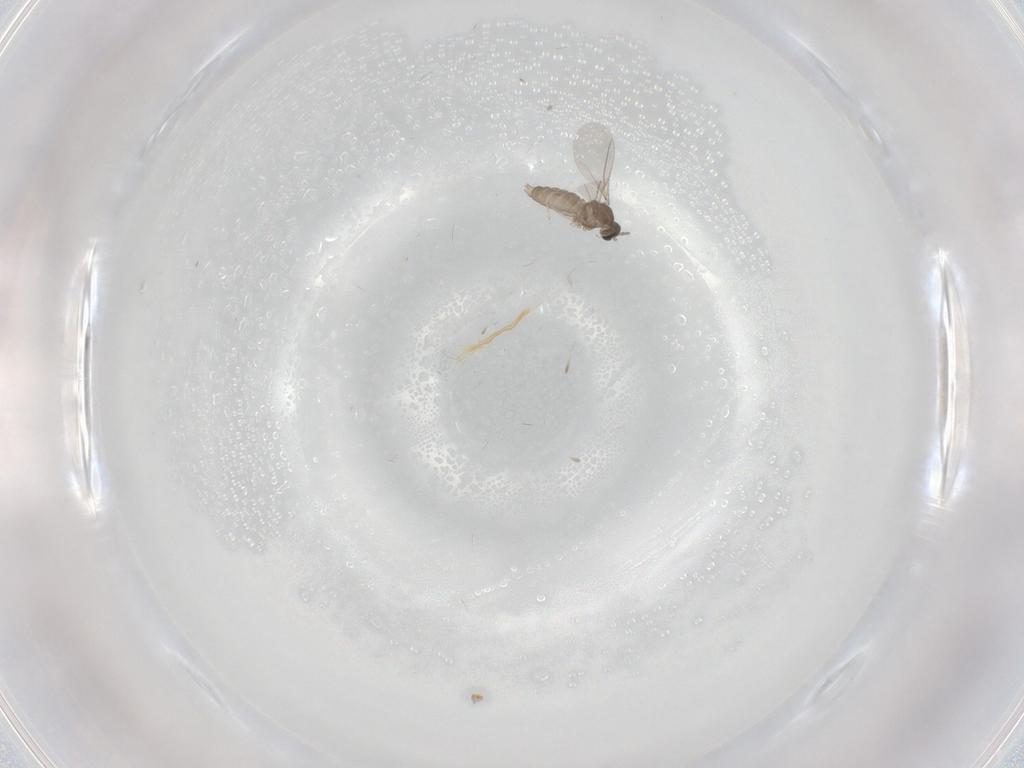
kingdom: Animalia
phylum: Arthropoda
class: Insecta
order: Diptera
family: Cecidomyiidae
